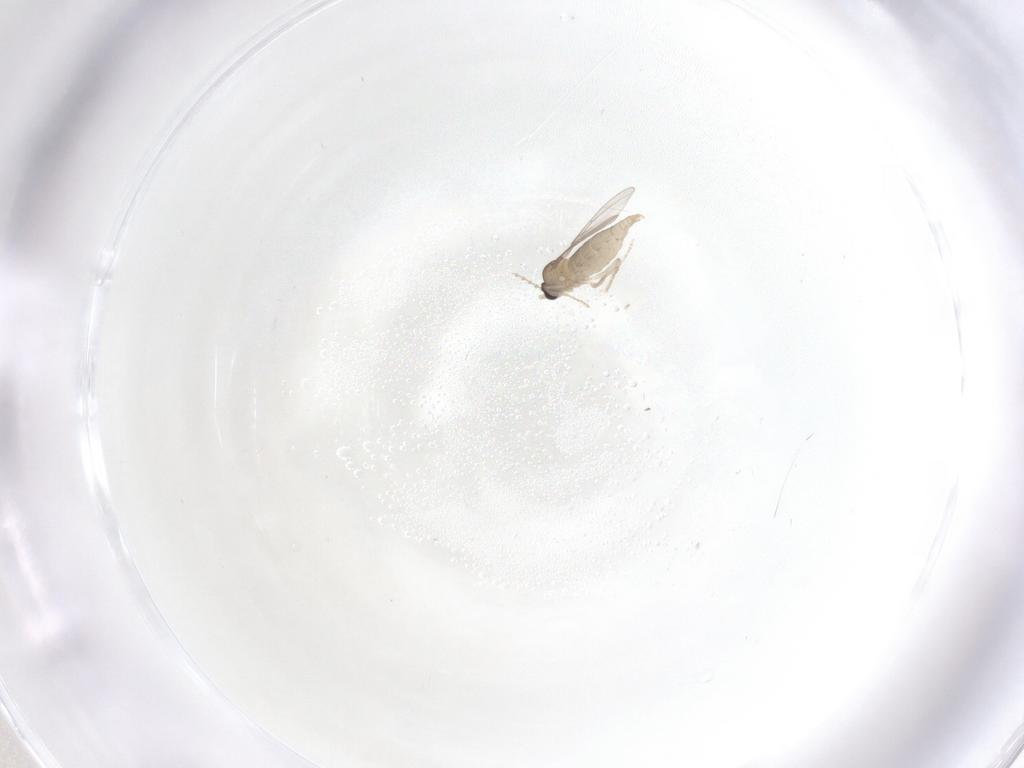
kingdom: Animalia
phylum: Arthropoda
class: Insecta
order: Diptera
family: Cecidomyiidae
